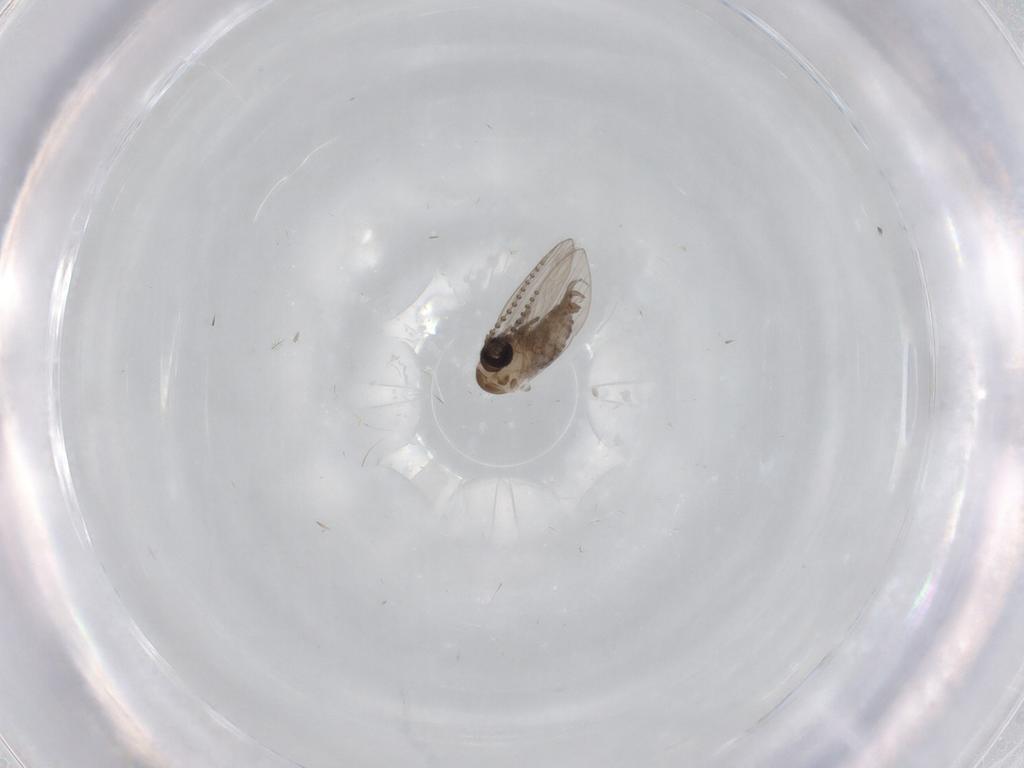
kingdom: Animalia
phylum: Arthropoda
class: Insecta
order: Diptera
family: Psychodidae
